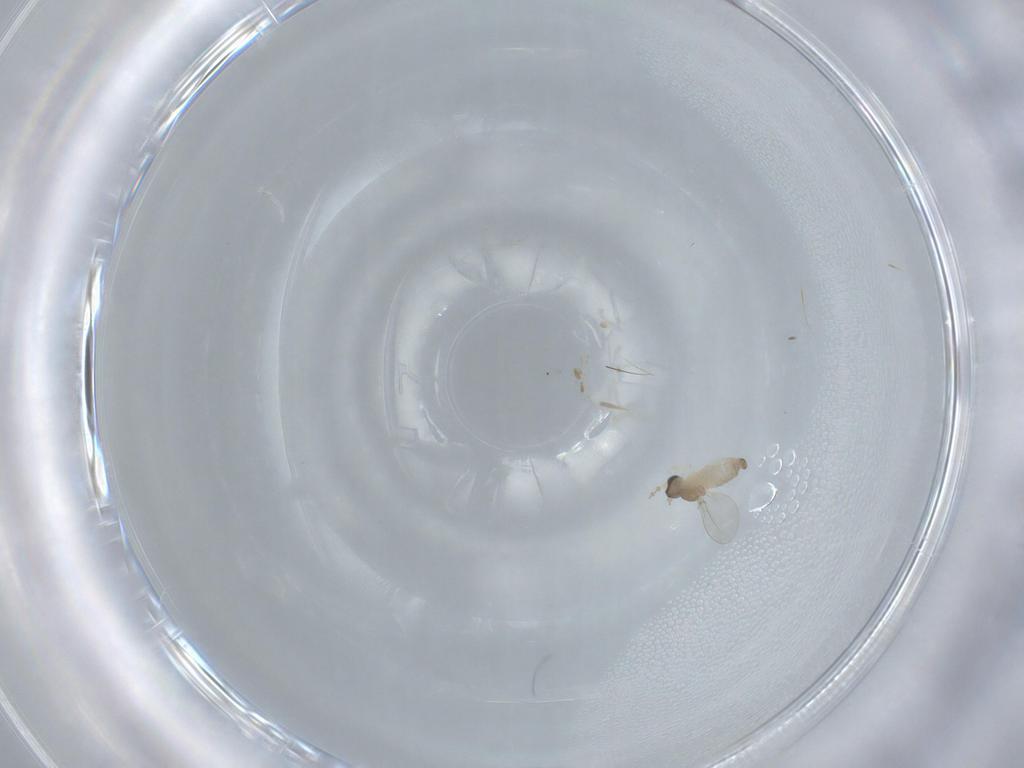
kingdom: Animalia
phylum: Arthropoda
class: Insecta
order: Diptera
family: Cecidomyiidae
